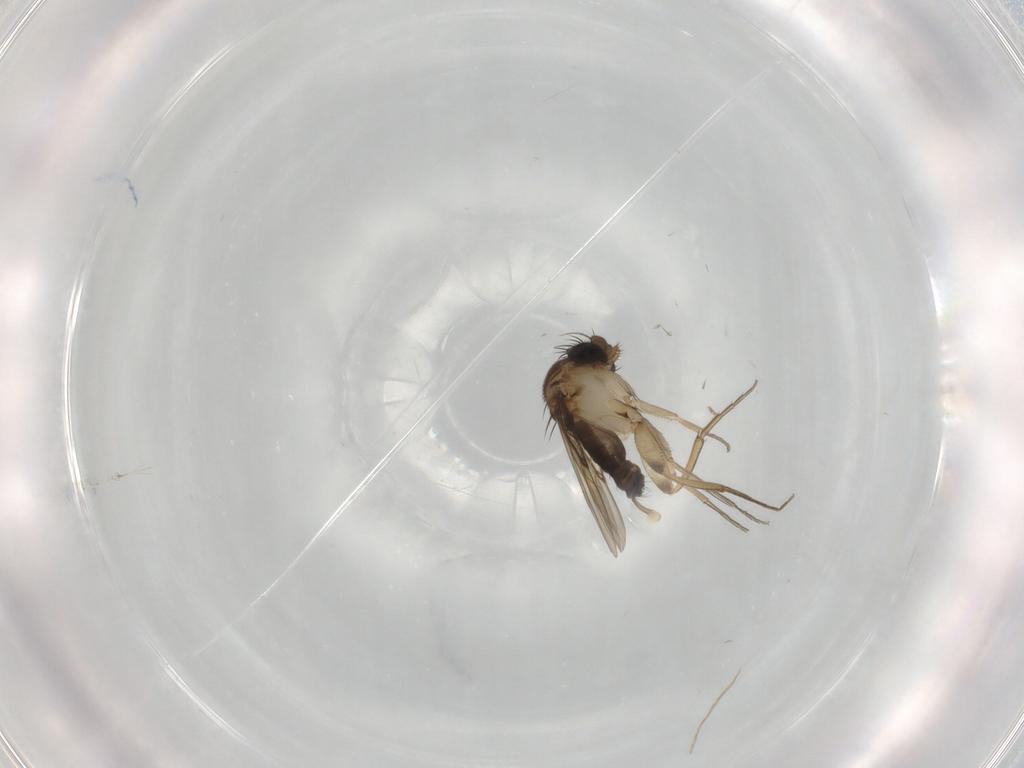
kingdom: Animalia
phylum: Arthropoda
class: Insecta
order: Diptera
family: Phoridae
